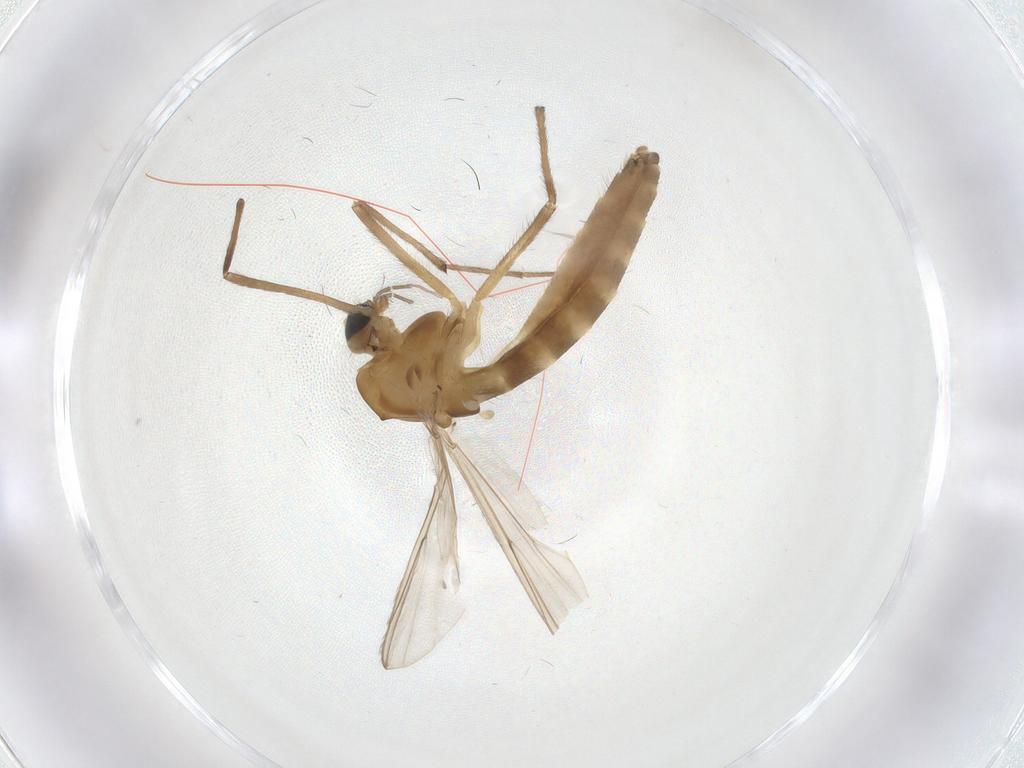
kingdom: Animalia
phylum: Arthropoda
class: Insecta
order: Diptera
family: Chironomidae
